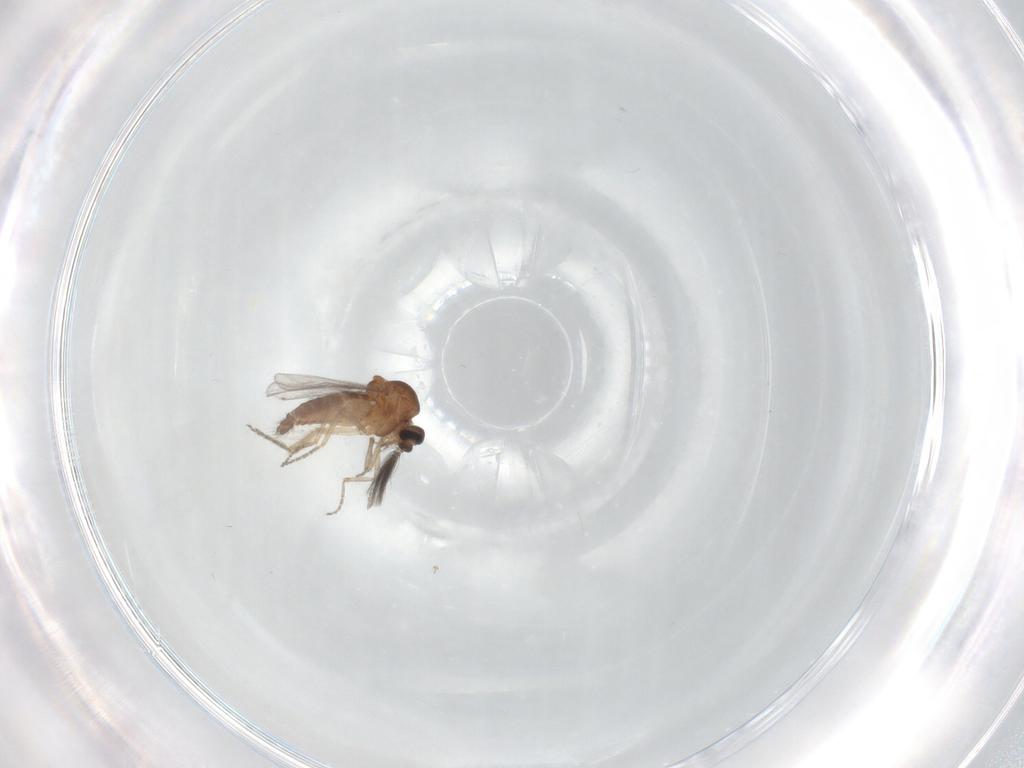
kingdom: Animalia
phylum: Arthropoda
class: Insecta
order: Diptera
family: Chironomidae
